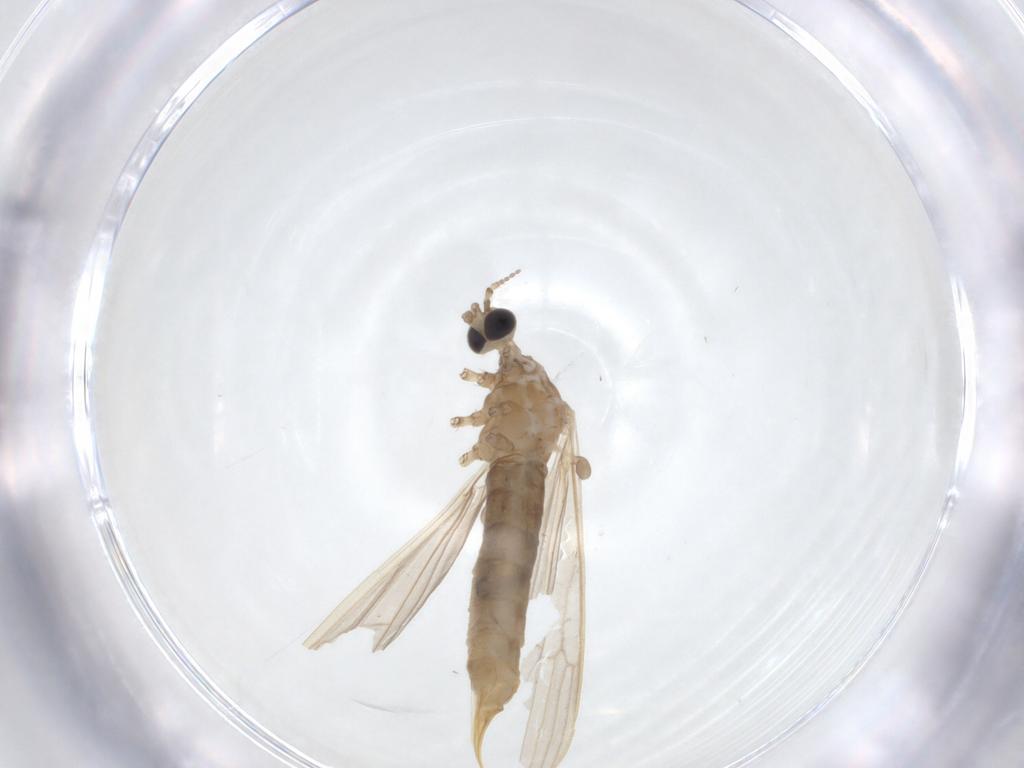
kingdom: Animalia
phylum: Arthropoda
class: Insecta
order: Diptera
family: Limoniidae
